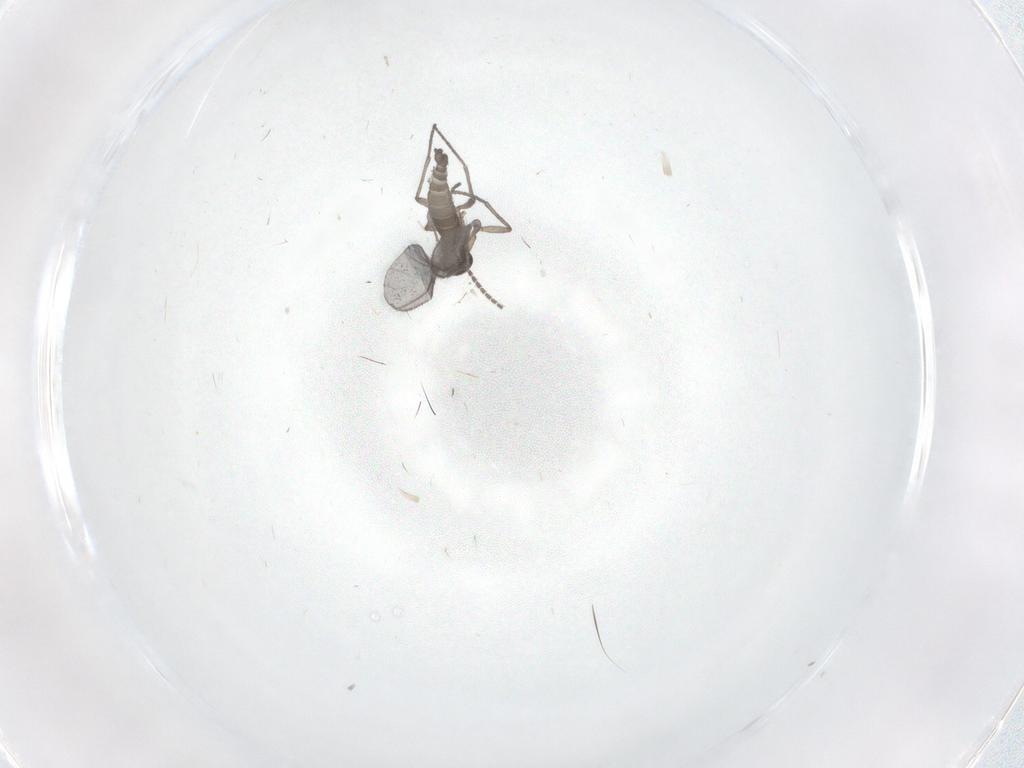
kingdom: Animalia
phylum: Arthropoda
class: Insecta
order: Diptera
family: Sciaridae
